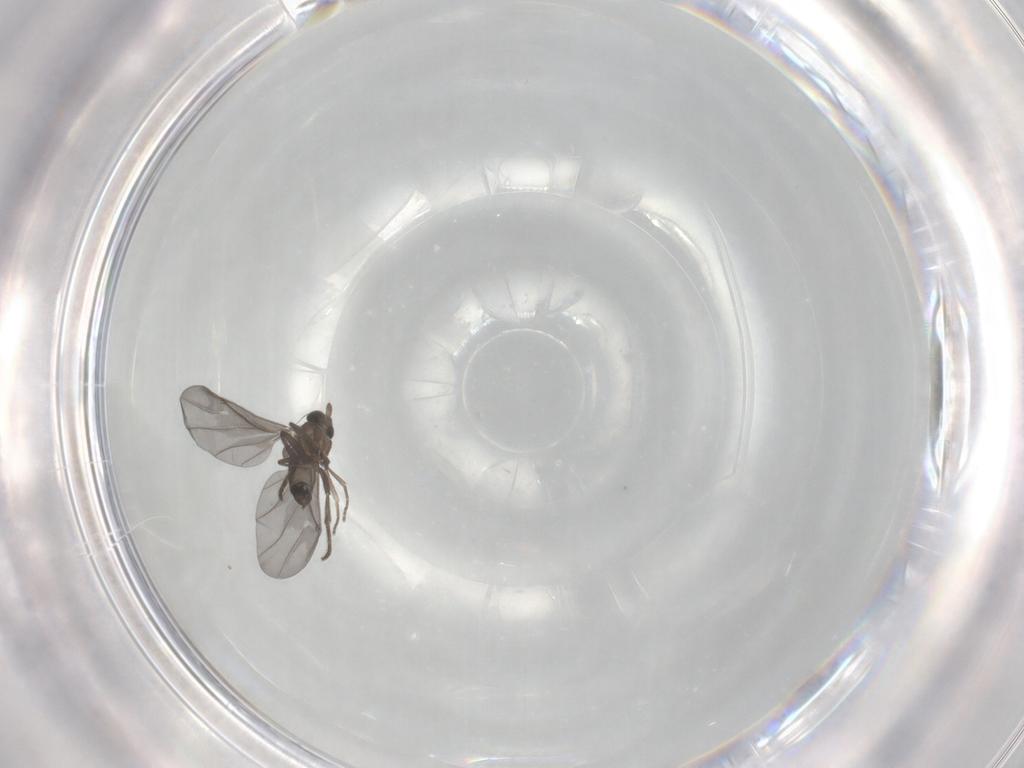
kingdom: Animalia
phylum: Arthropoda
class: Insecta
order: Diptera
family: Phoridae
